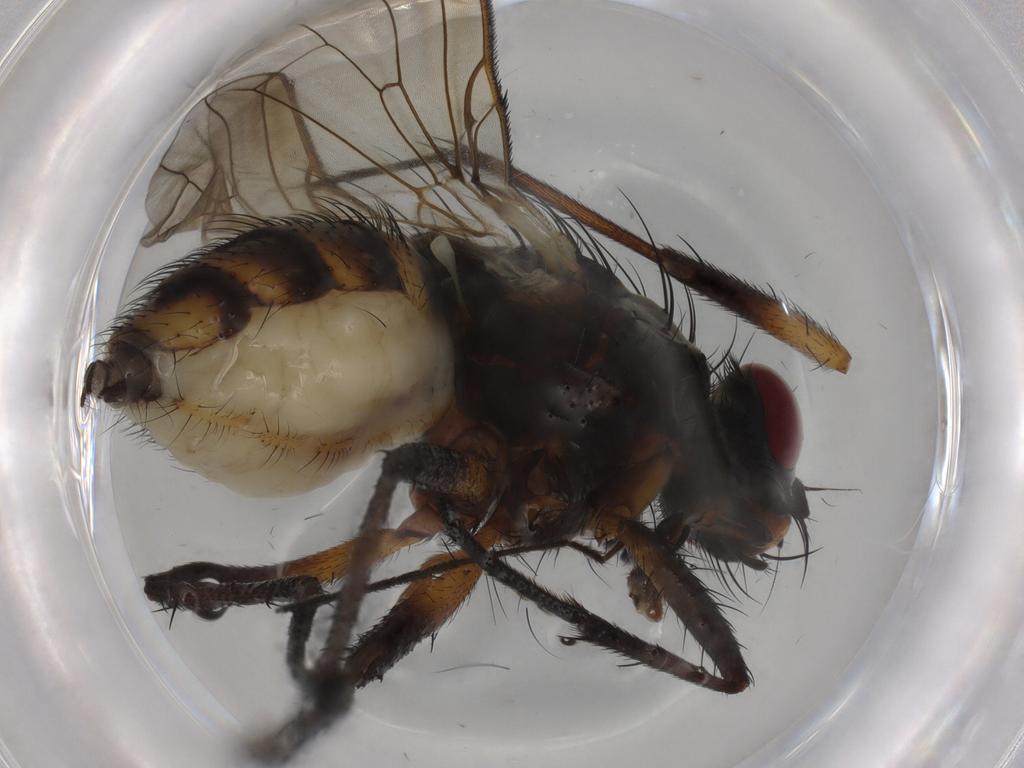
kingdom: Animalia
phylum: Arthropoda
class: Insecta
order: Diptera
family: Anthomyiidae
